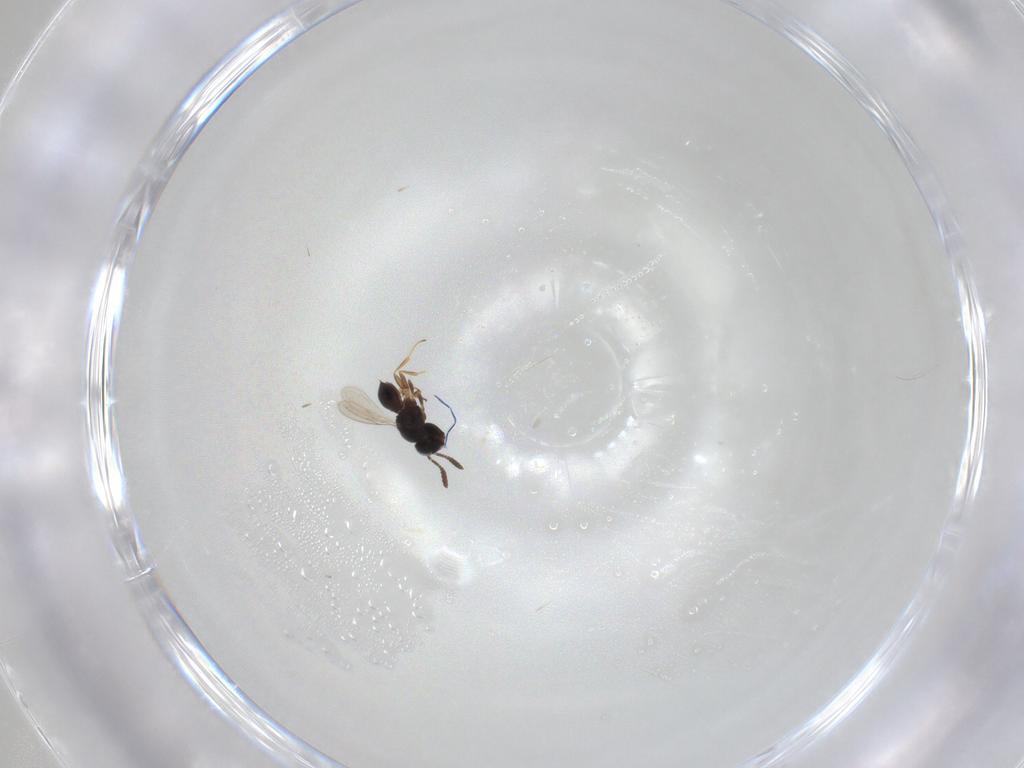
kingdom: Animalia
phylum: Arthropoda
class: Insecta
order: Hymenoptera
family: Scelionidae
